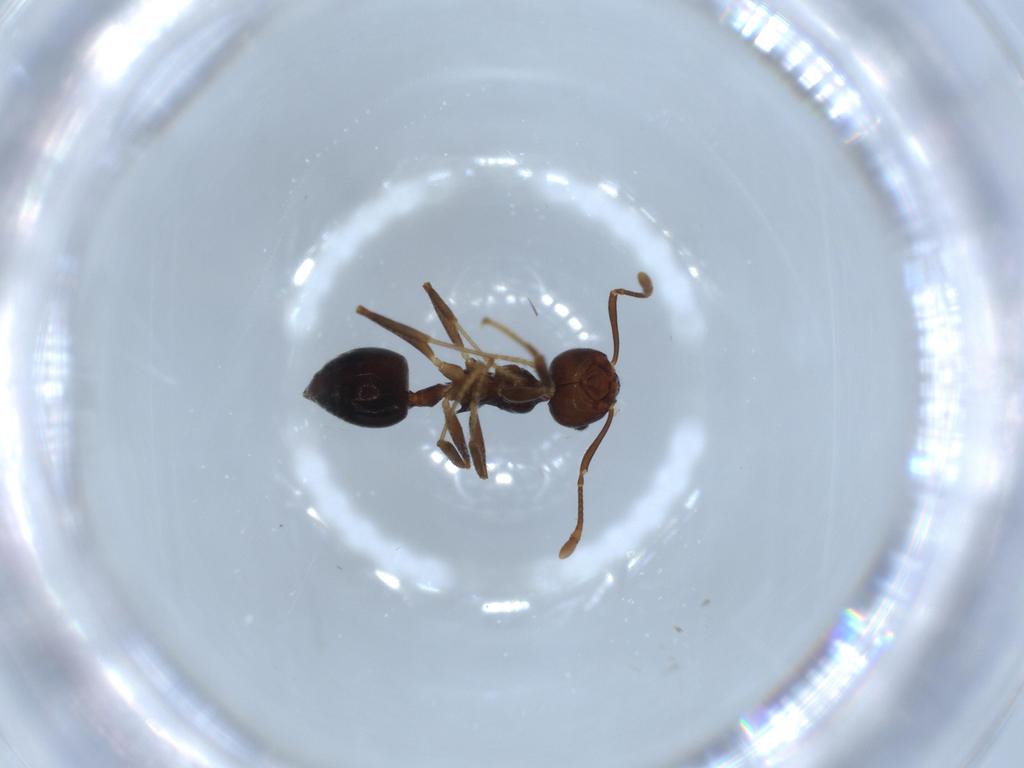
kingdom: Animalia
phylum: Arthropoda
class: Insecta
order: Hymenoptera
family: Formicidae
